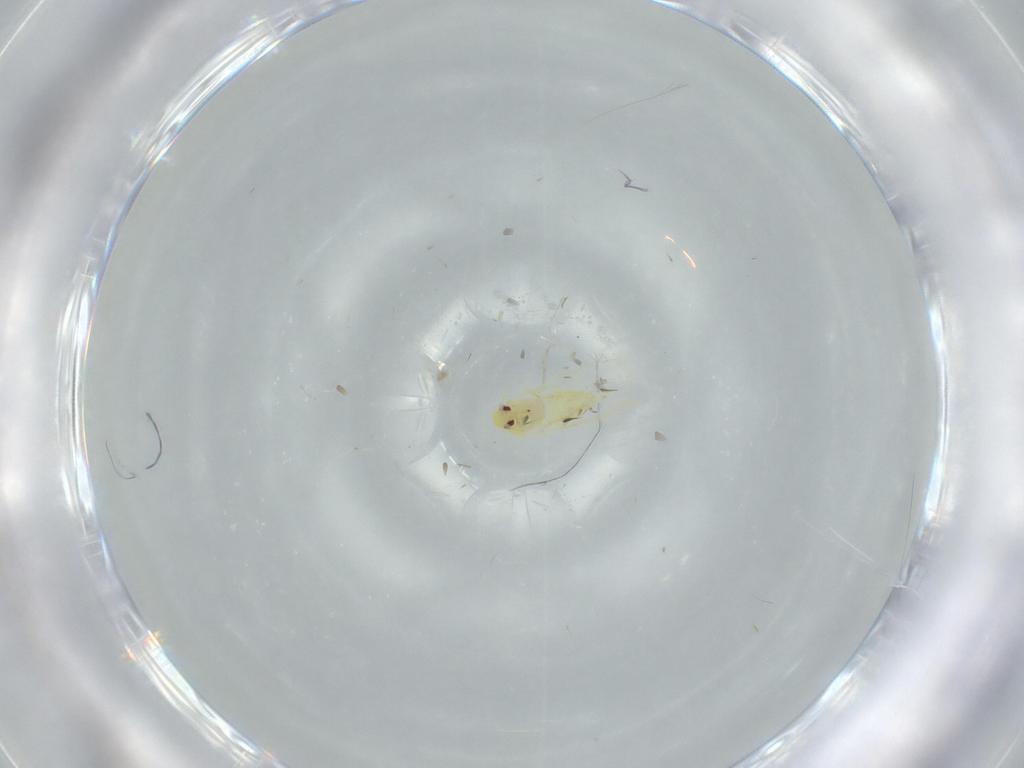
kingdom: Animalia
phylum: Arthropoda
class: Insecta
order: Hemiptera
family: Aleyrodidae
